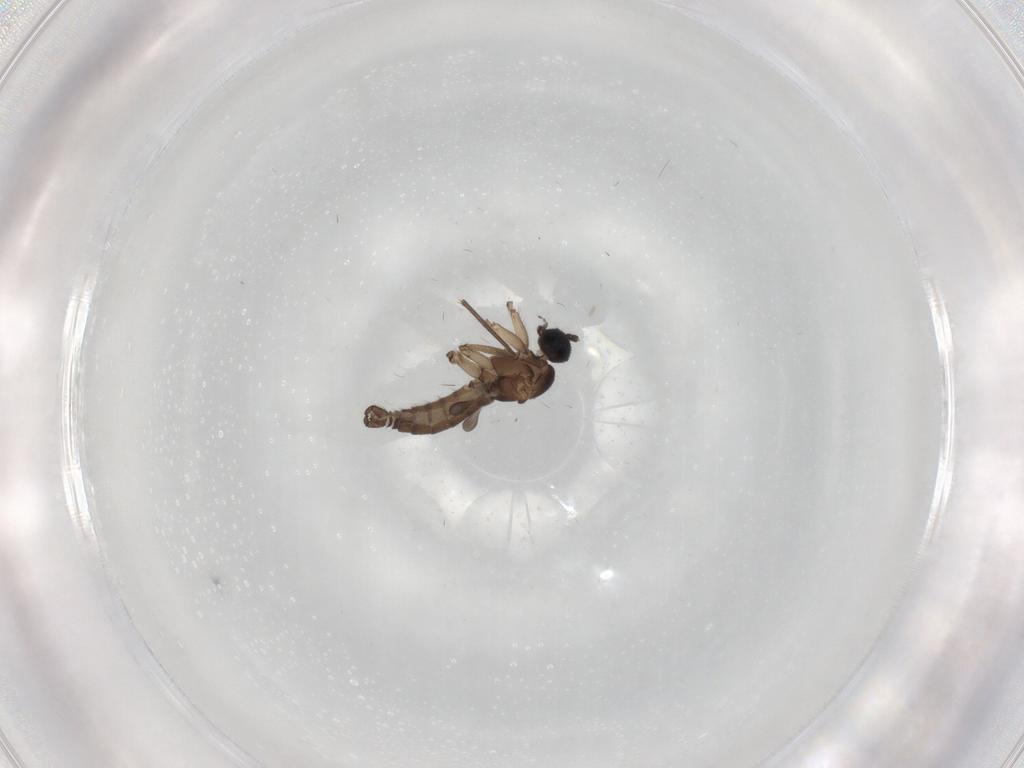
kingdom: Animalia
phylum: Arthropoda
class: Insecta
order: Diptera
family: Sciaridae
